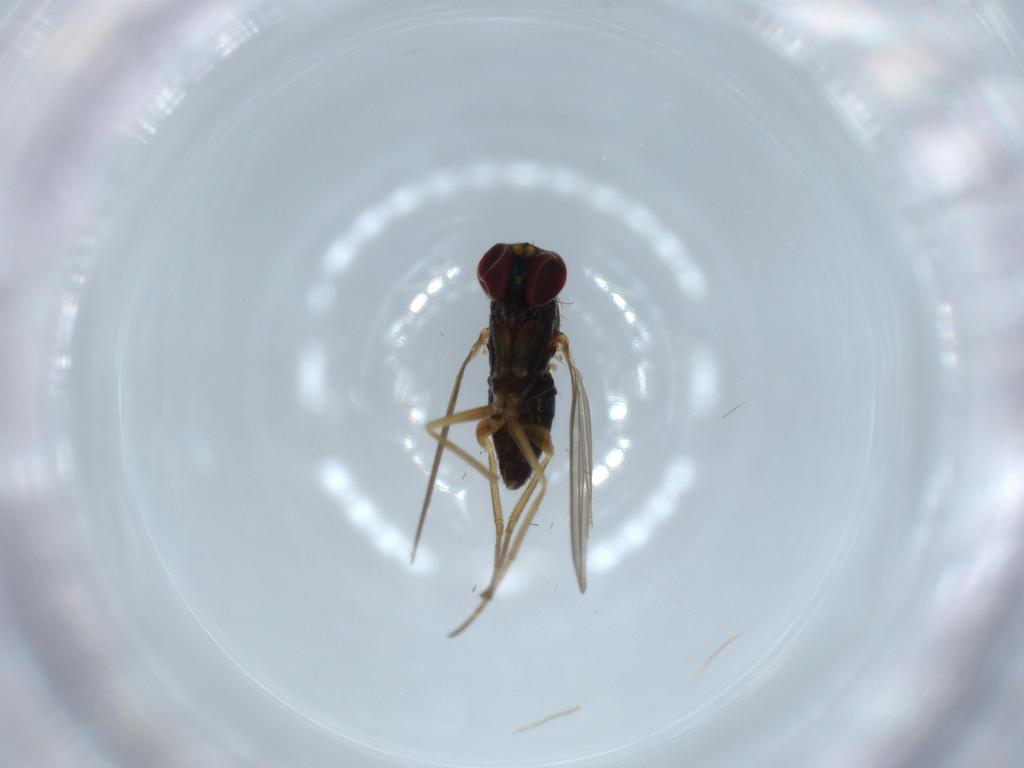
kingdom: Animalia
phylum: Arthropoda
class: Insecta
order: Diptera
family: Dolichopodidae
